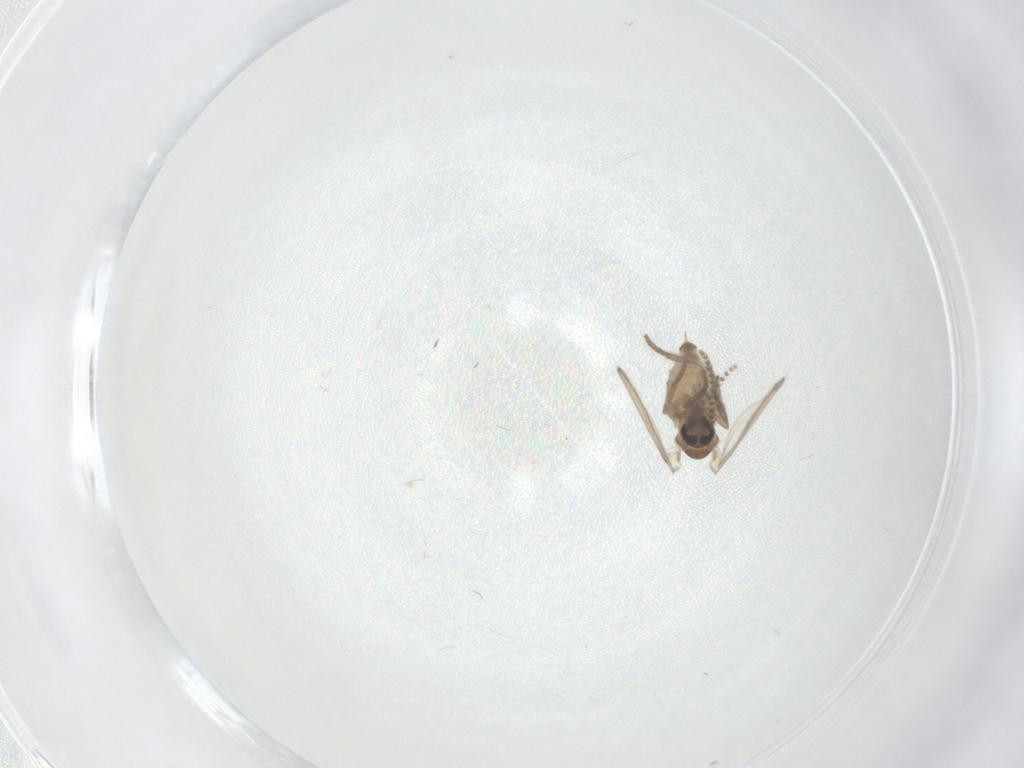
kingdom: Animalia
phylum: Arthropoda
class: Insecta
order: Diptera
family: Psychodidae
